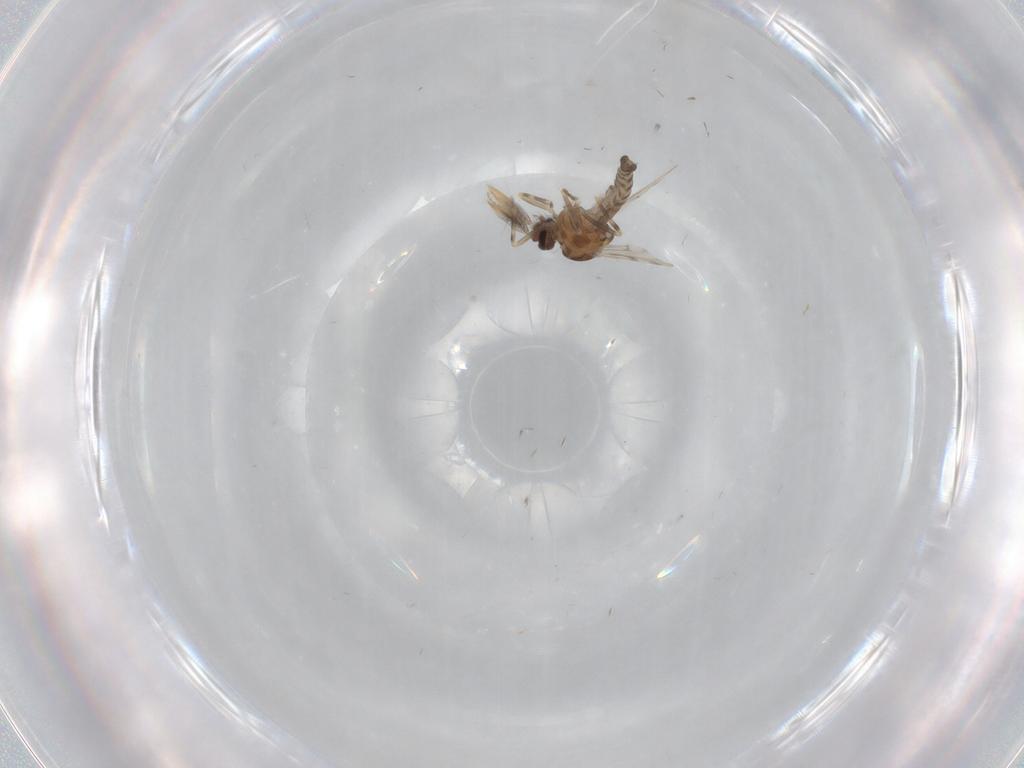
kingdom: Animalia
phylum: Arthropoda
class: Insecta
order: Diptera
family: Ceratopogonidae
